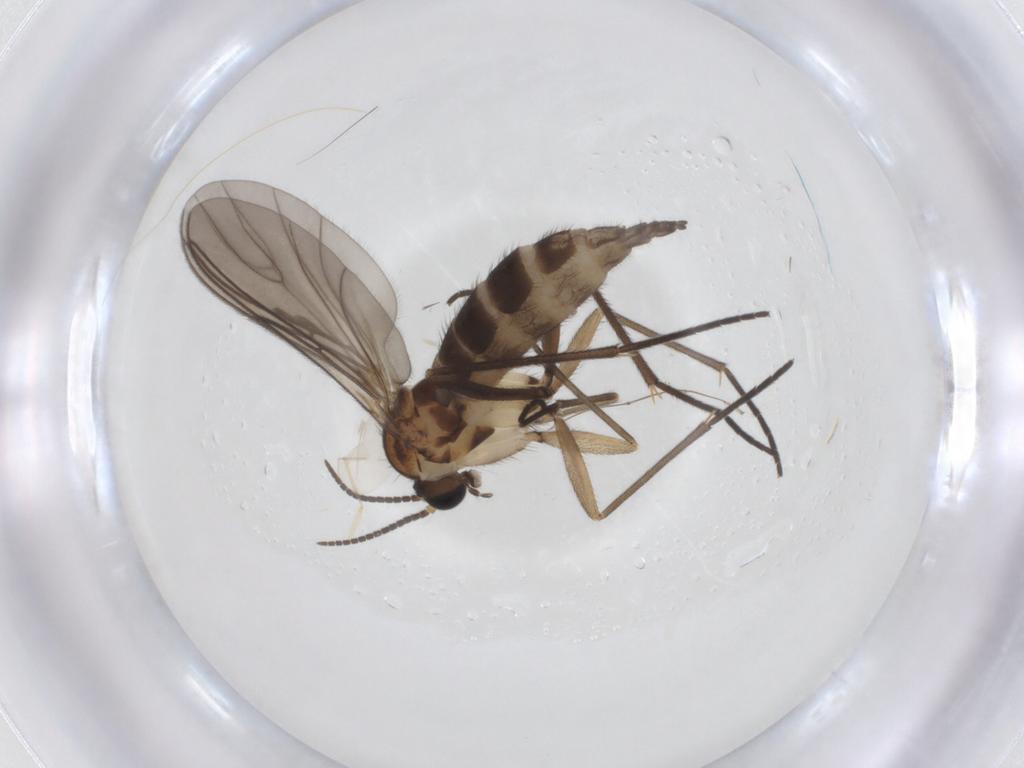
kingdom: Animalia
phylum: Arthropoda
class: Insecta
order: Diptera
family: Sciaridae
